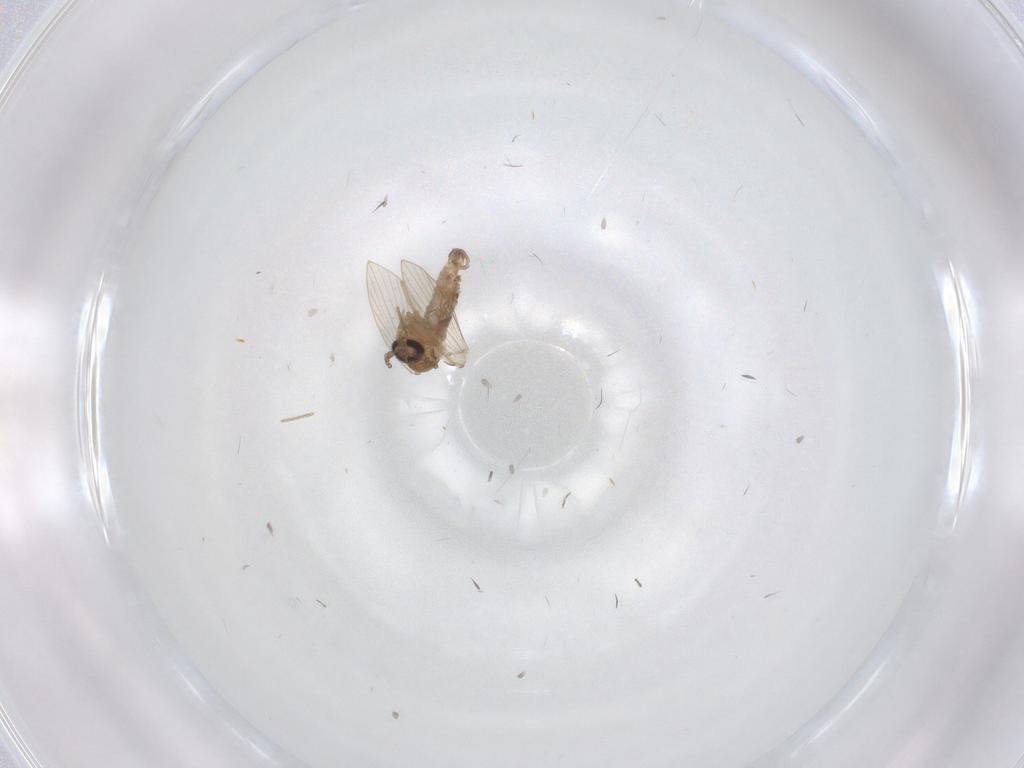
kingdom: Animalia
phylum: Arthropoda
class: Insecta
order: Diptera
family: Psychodidae
